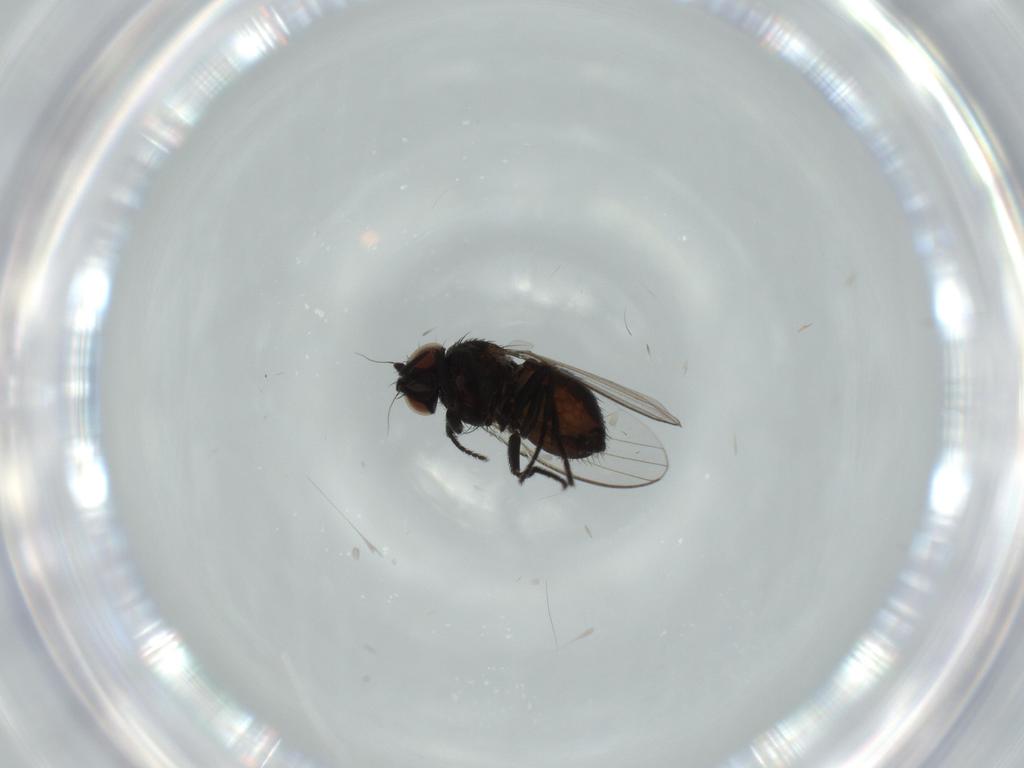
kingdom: Animalia
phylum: Arthropoda
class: Insecta
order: Diptera
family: Milichiidae
